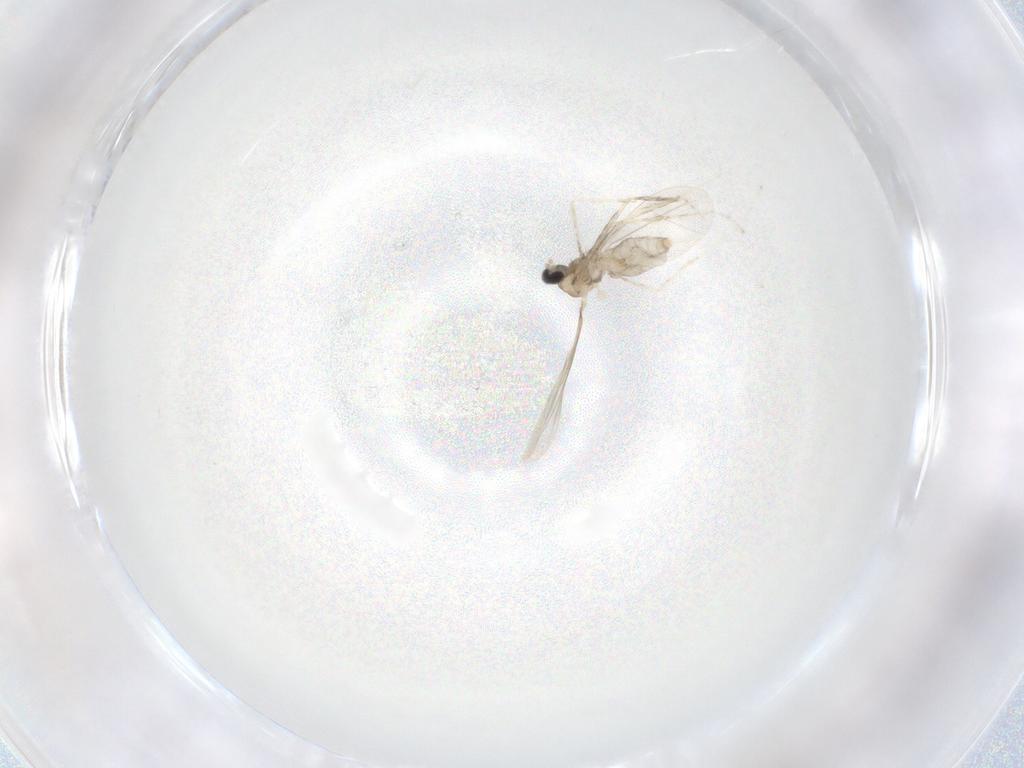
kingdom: Animalia
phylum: Arthropoda
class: Insecta
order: Diptera
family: Cecidomyiidae
